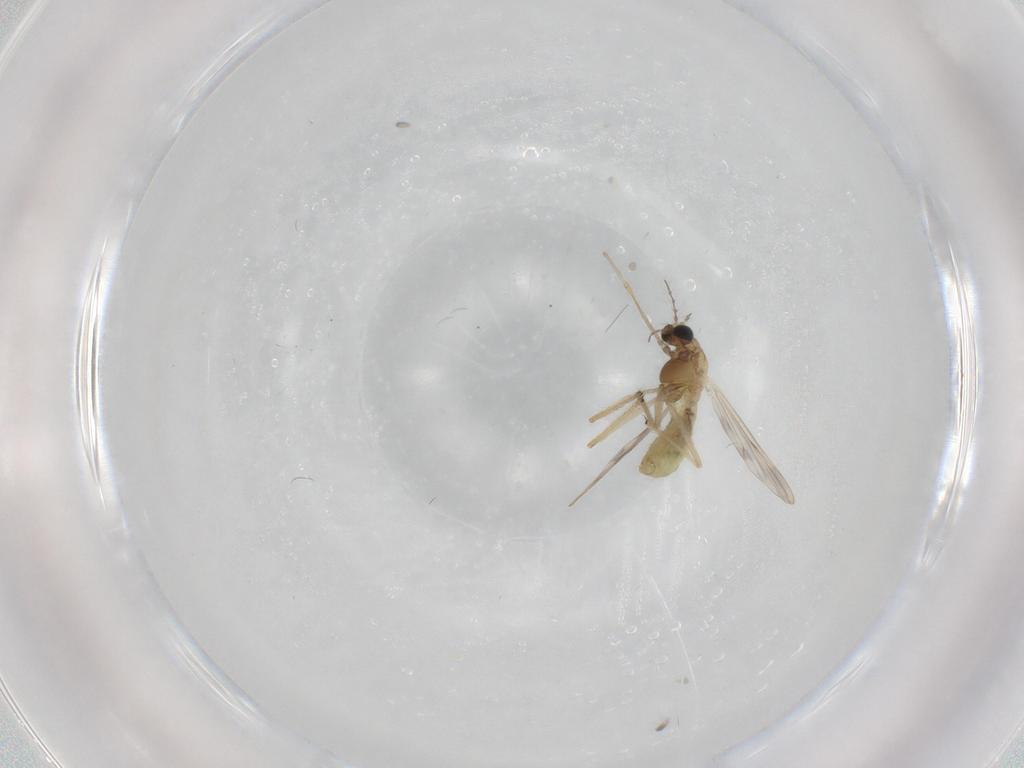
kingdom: Animalia
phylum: Arthropoda
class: Insecta
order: Diptera
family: Chironomidae
